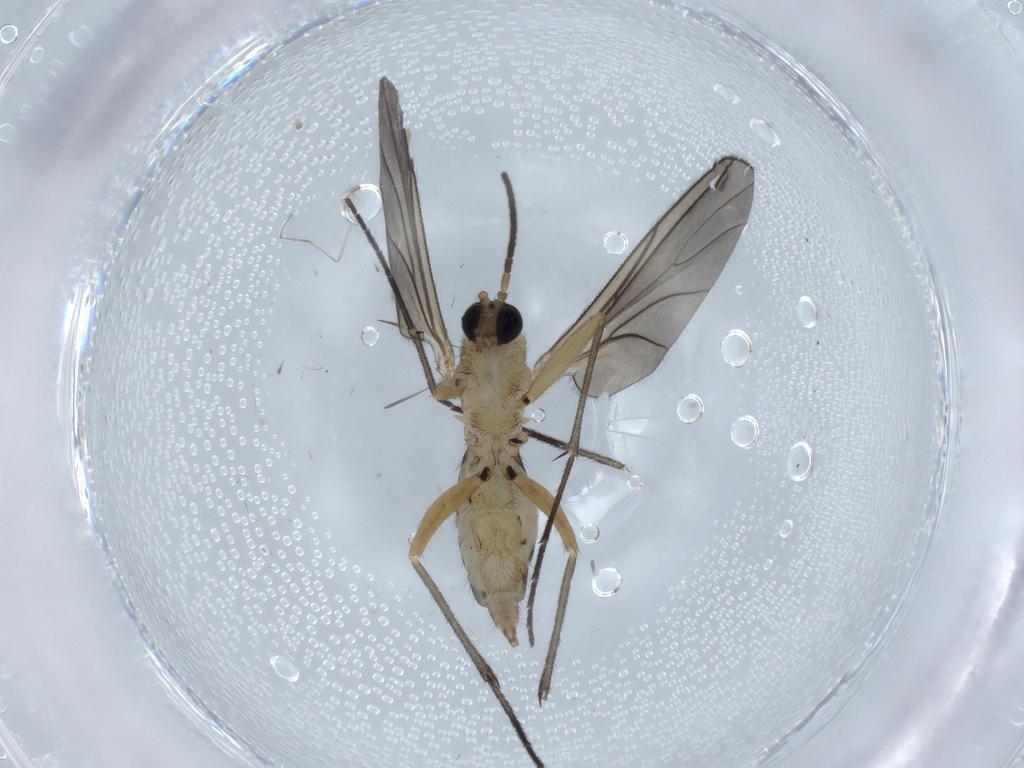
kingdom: Animalia
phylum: Arthropoda
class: Insecta
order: Diptera
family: Sciaridae
